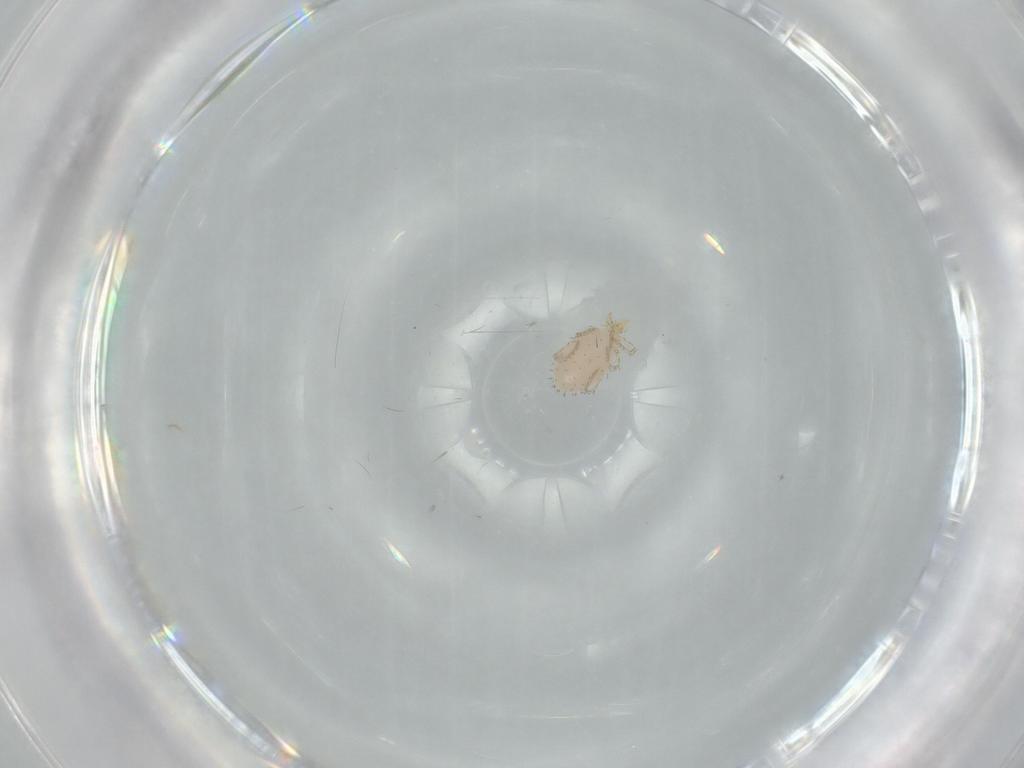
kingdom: Animalia
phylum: Arthropoda
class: Arachnida
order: Trombidiformes
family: Erythraeidae
